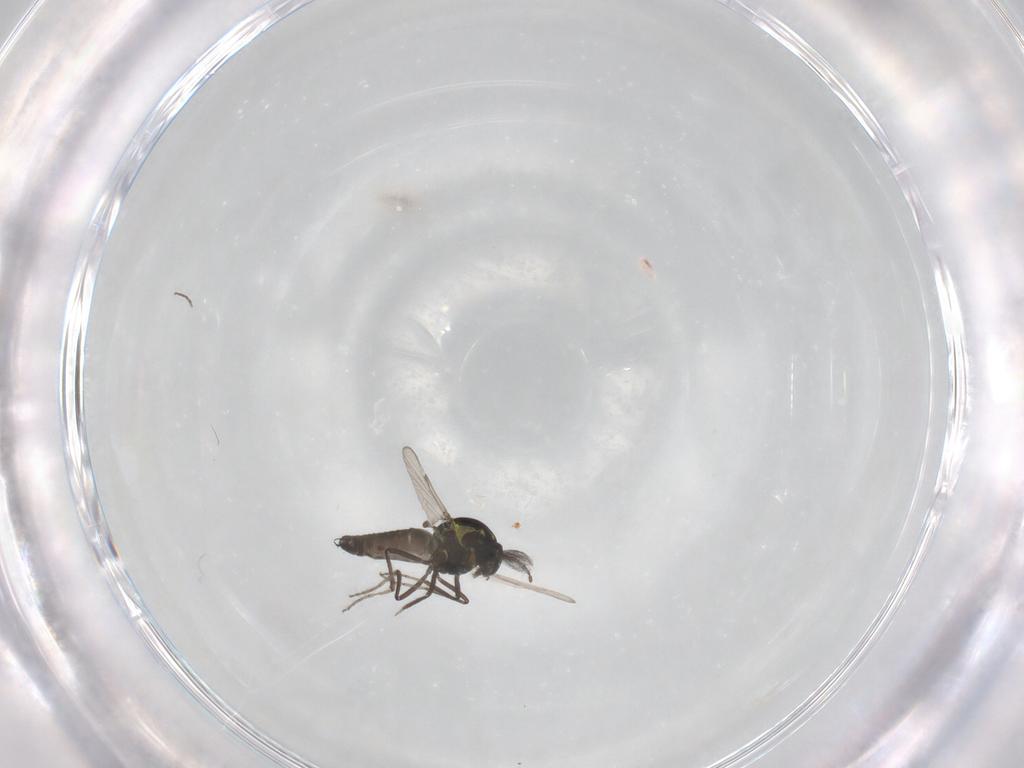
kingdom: Animalia
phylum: Arthropoda
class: Insecta
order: Diptera
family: Ceratopogonidae
